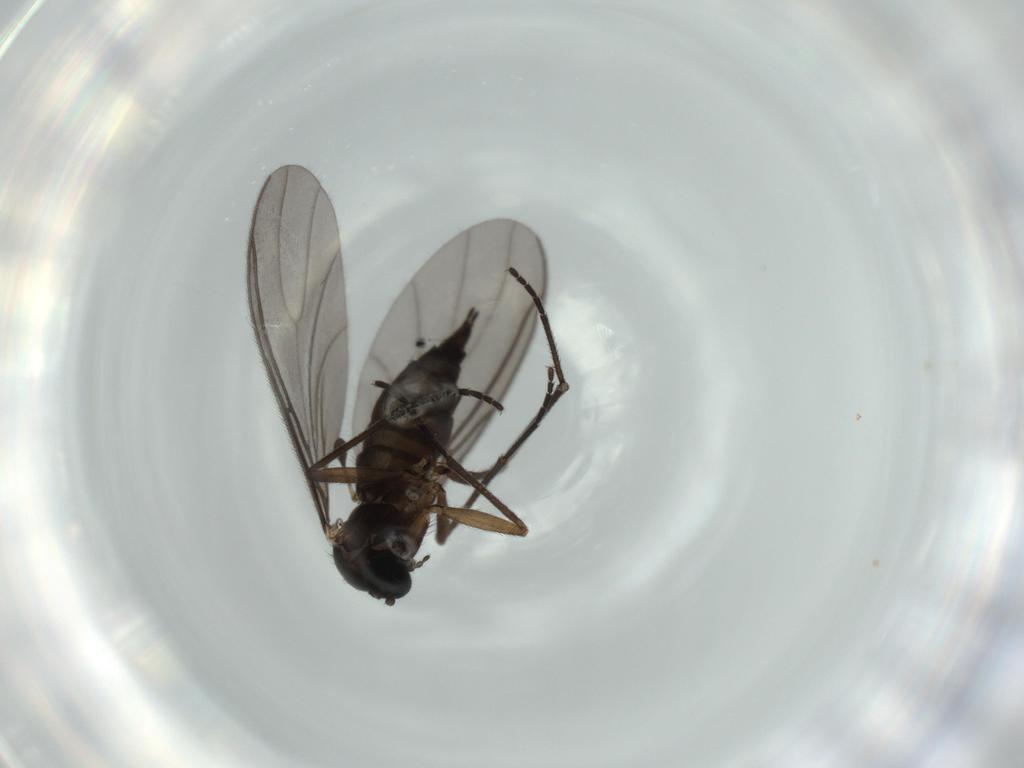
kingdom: Animalia
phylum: Arthropoda
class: Insecta
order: Diptera
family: Sciaridae
